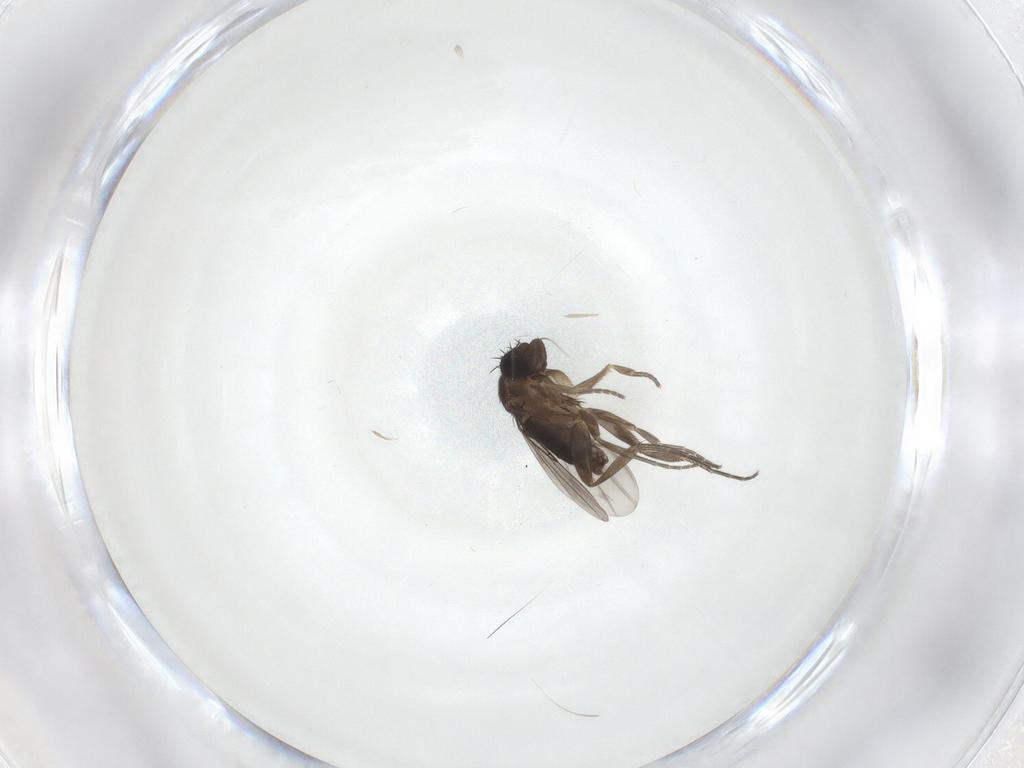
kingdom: Animalia
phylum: Arthropoda
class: Insecta
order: Diptera
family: Phoridae
